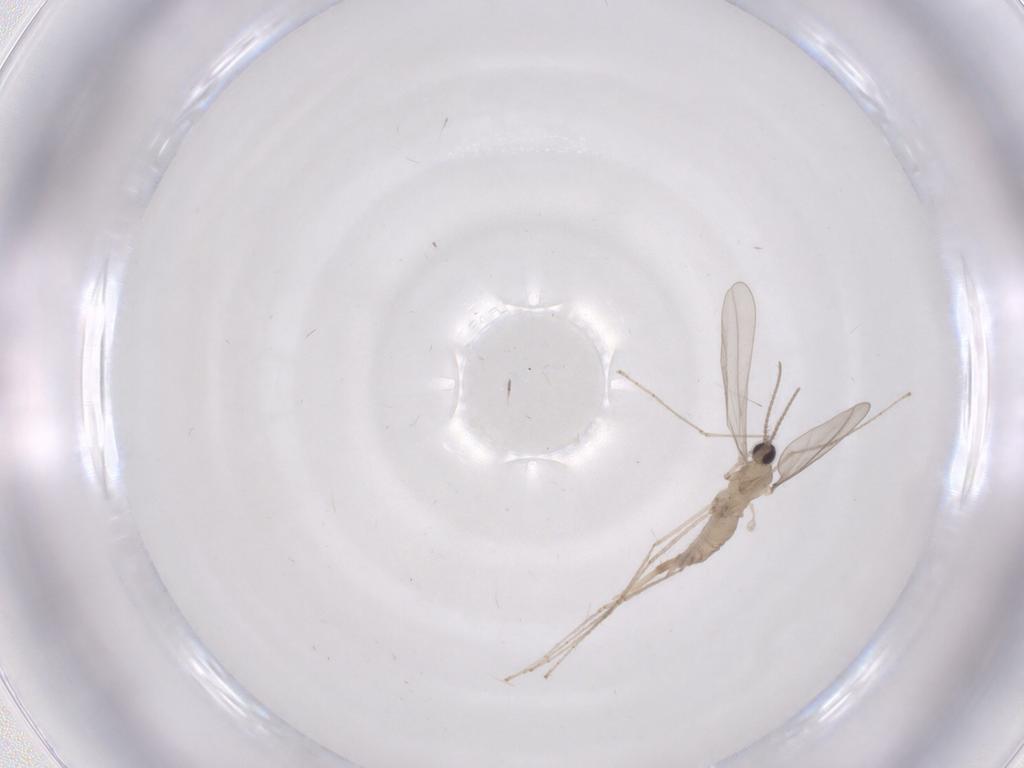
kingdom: Animalia
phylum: Arthropoda
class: Insecta
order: Diptera
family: Cecidomyiidae
